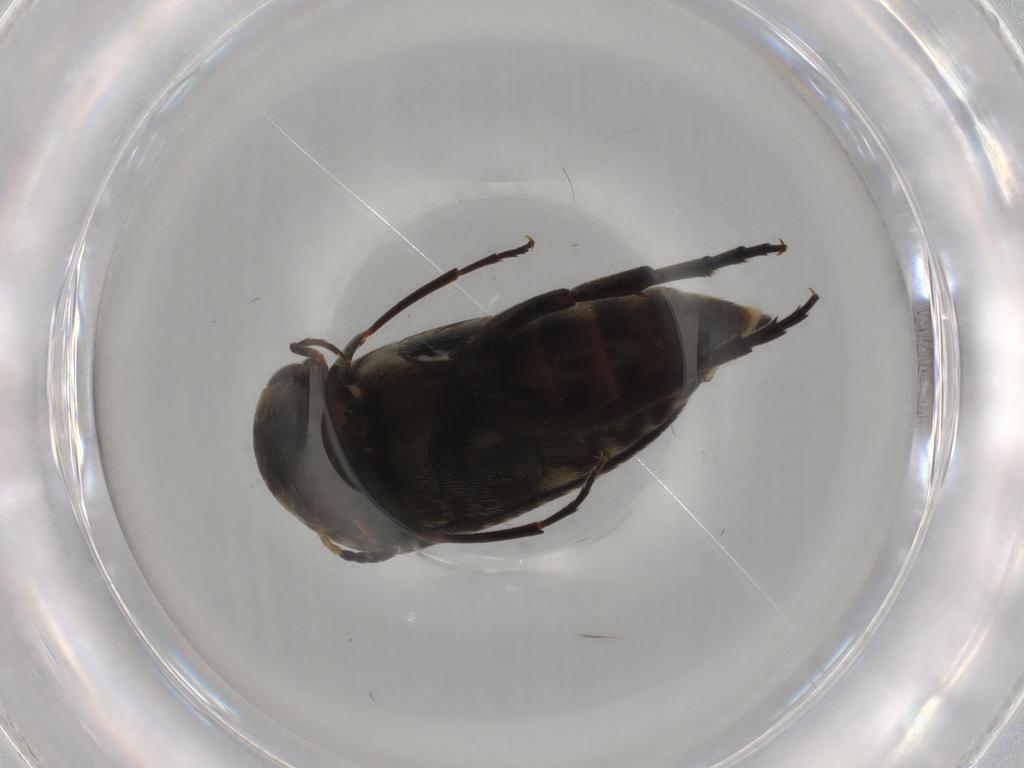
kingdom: Animalia
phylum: Arthropoda
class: Insecta
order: Coleoptera
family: Mordellidae
